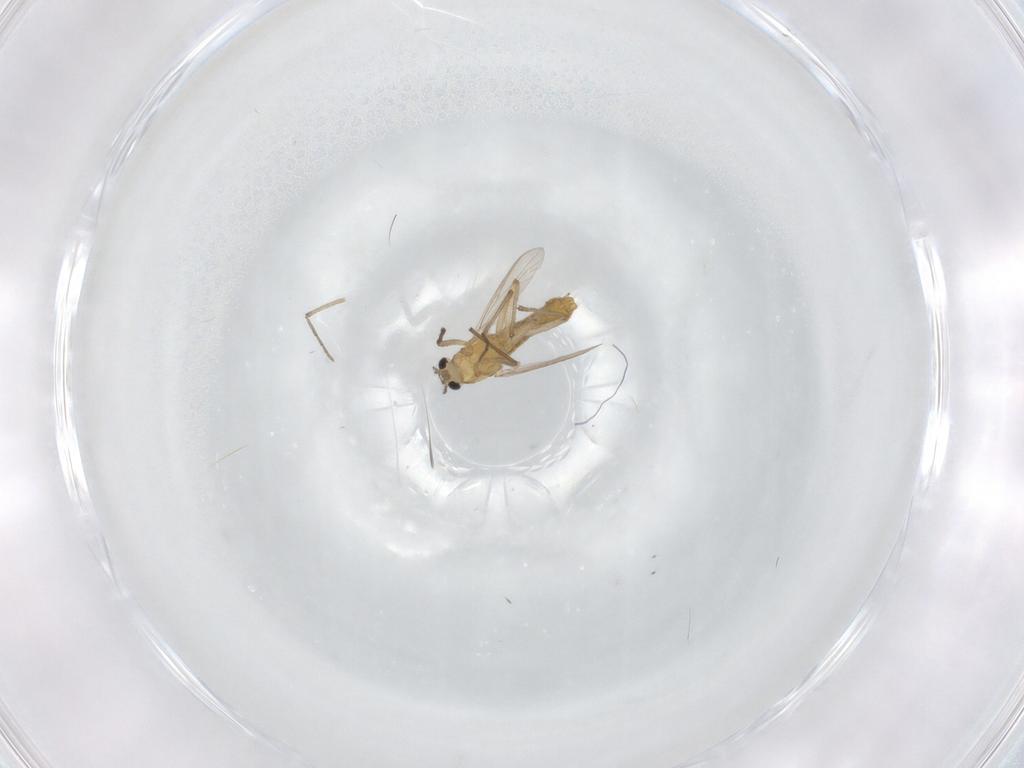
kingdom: Animalia
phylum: Arthropoda
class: Insecta
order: Diptera
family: Chironomidae
